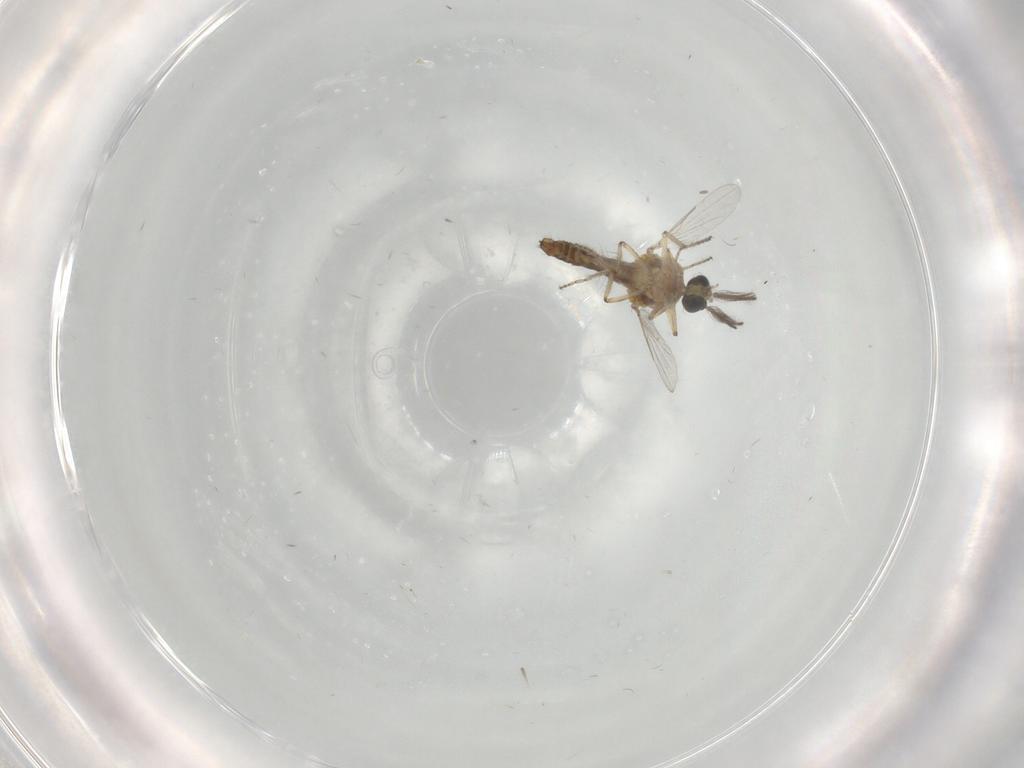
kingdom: Animalia
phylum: Arthropoda
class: Insecta
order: Diptera
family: Ceratopogonidae
